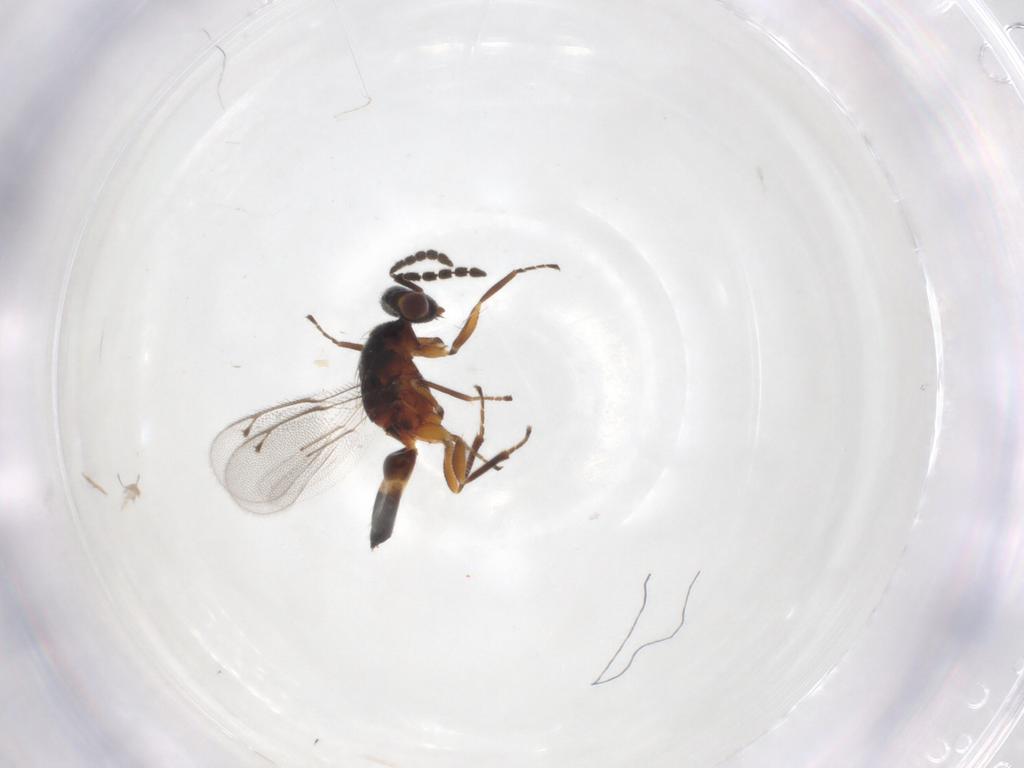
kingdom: Animalia
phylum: Arthropoda
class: Insecta
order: Hymenoptera
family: Eulophidae
